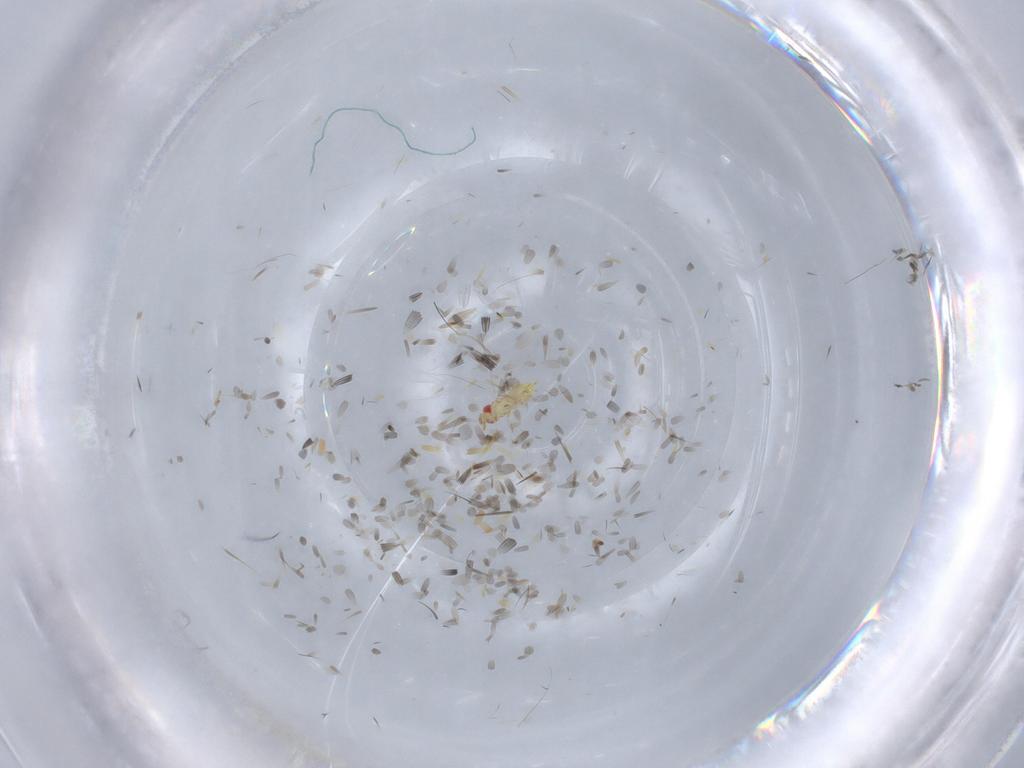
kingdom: Animalia
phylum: Arthropoda
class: Insecta
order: Hymenoptera
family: Trichogrammatidae
